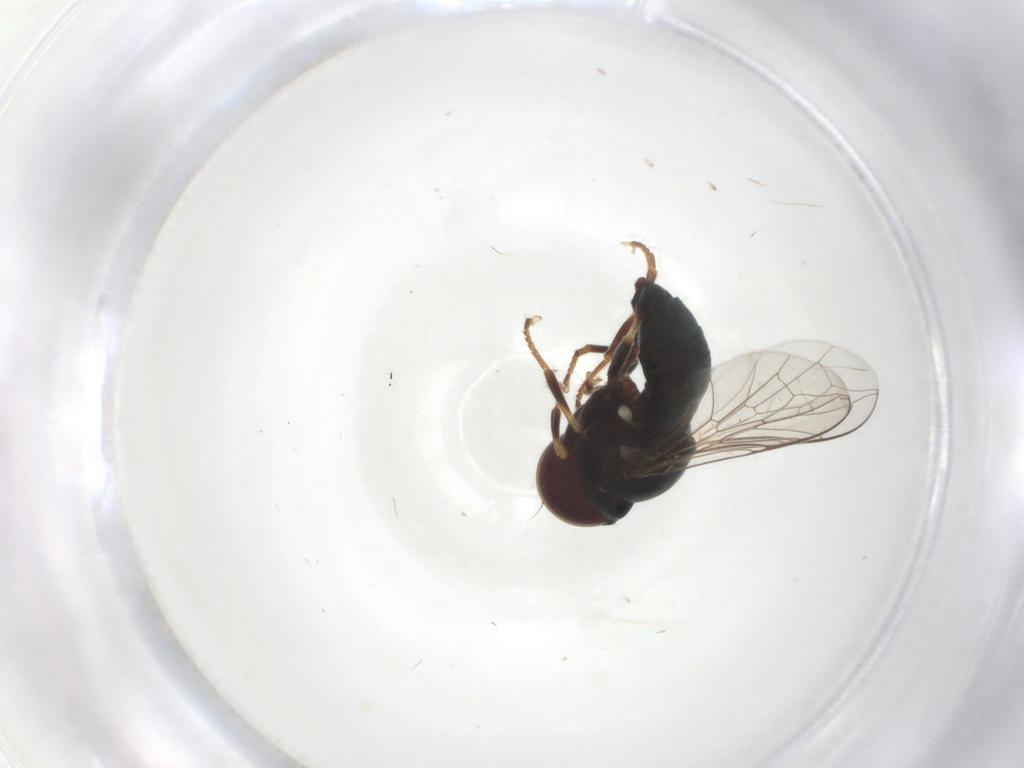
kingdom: Animalia
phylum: Arthropoda
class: Insecta
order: Diptera
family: Pipunculidae
